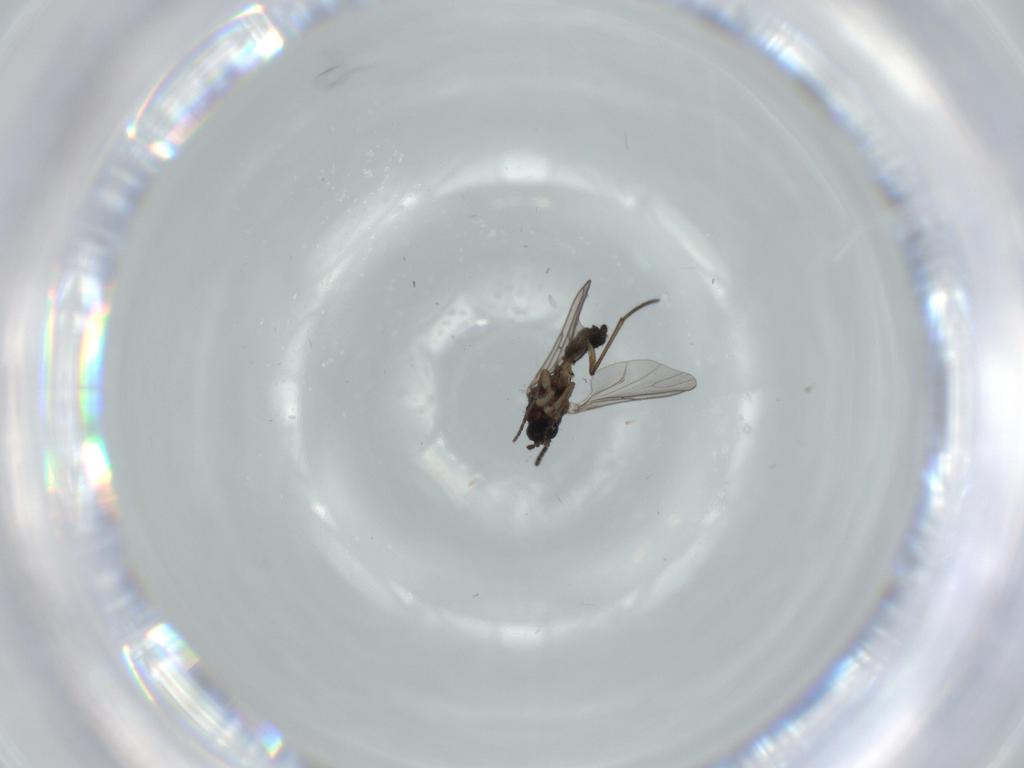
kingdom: Animalia
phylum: Arthropoda
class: Insecta
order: Diptera
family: Sciaridae
